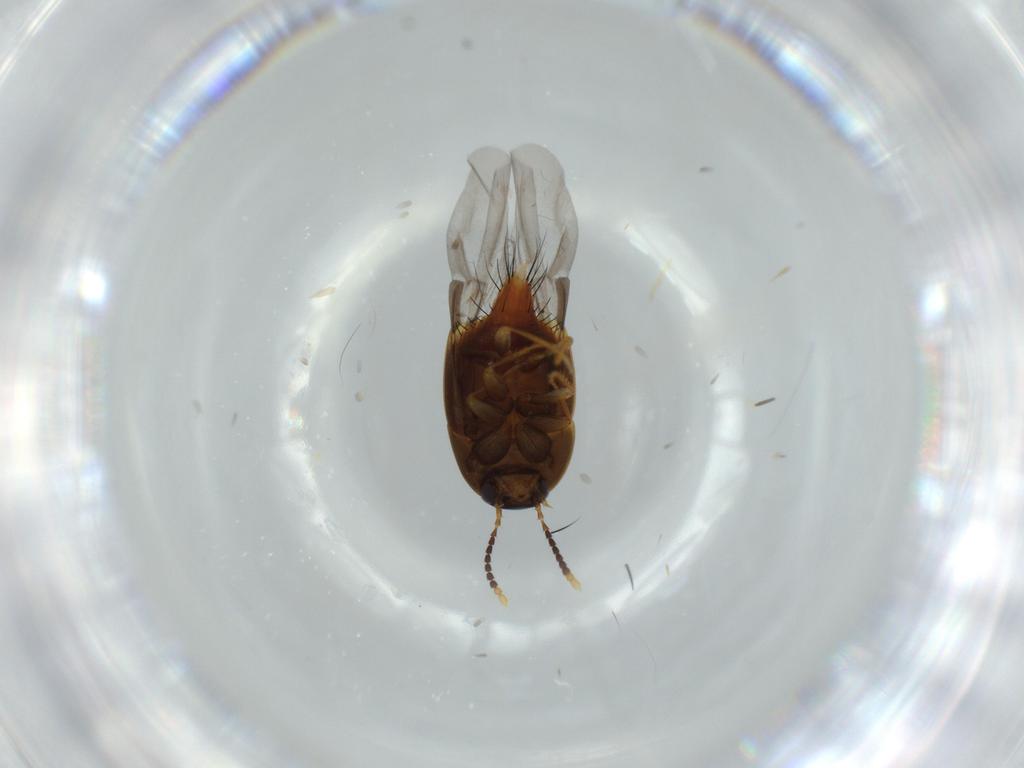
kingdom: Animalia
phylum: Arthropoda
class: Insecta
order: Coleoptera
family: Staphylinidae
